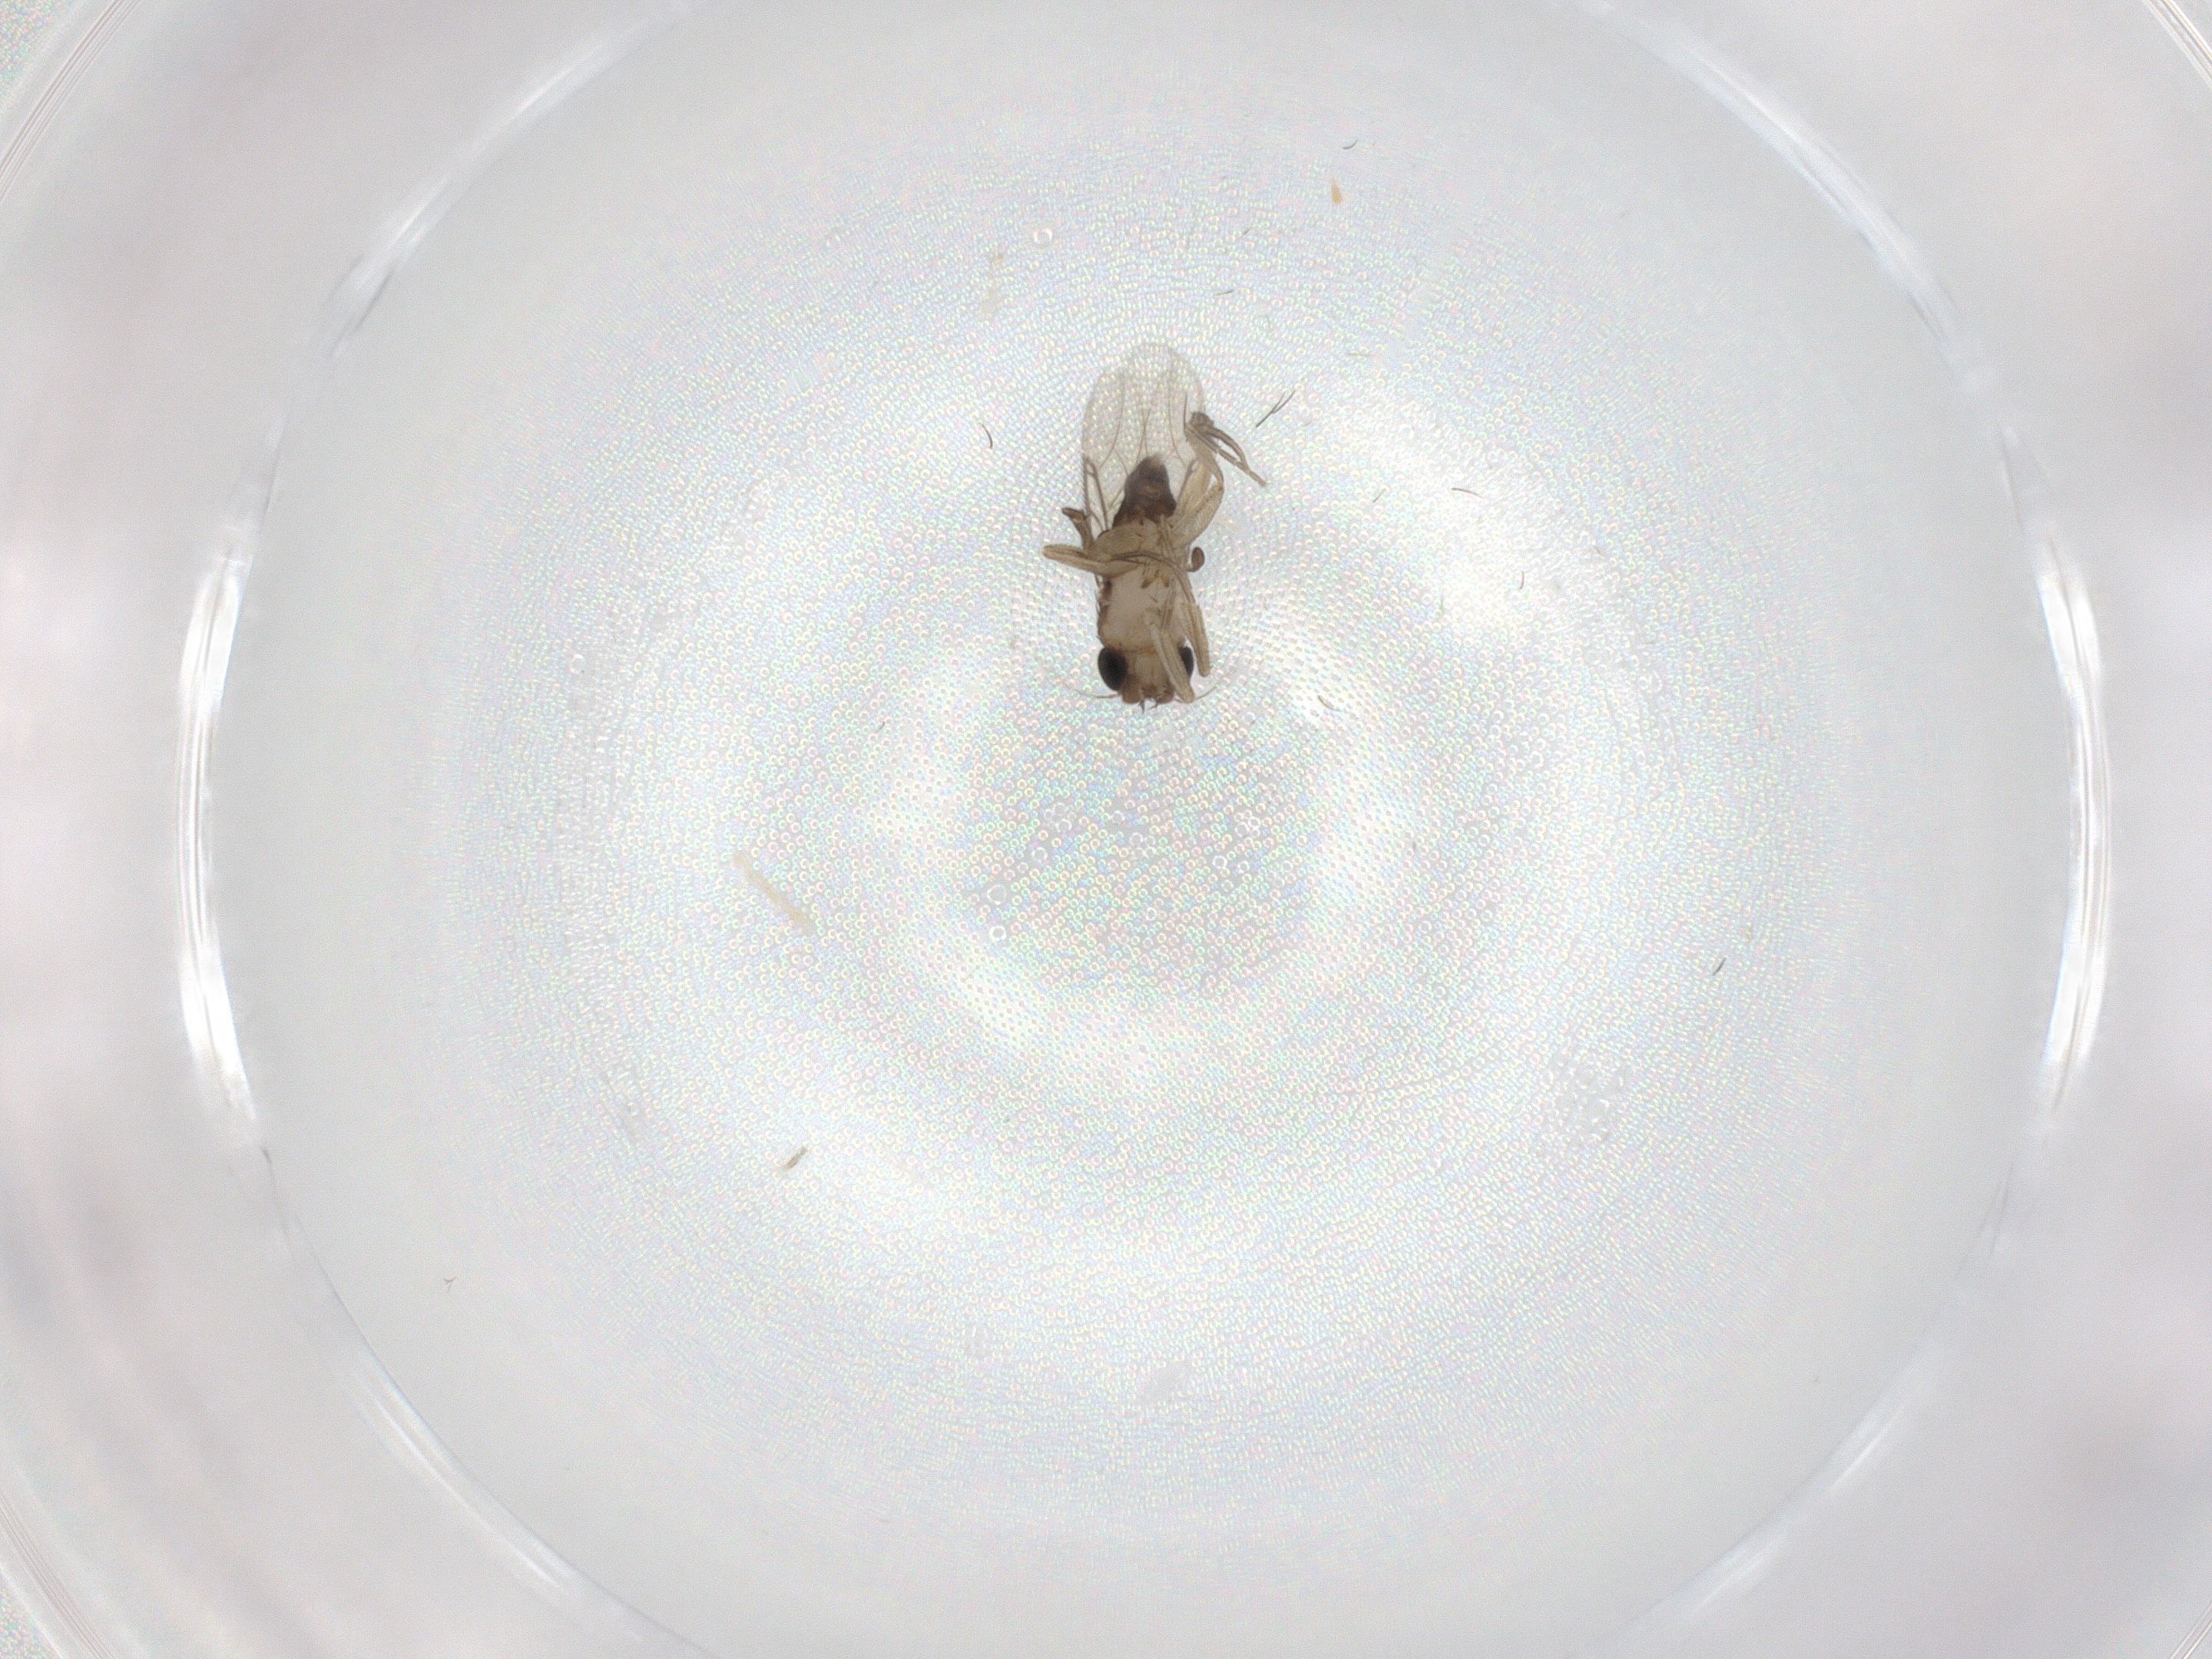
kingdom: Animalia
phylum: Arthropoda
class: Insecta
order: Diptera
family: Phoridae
